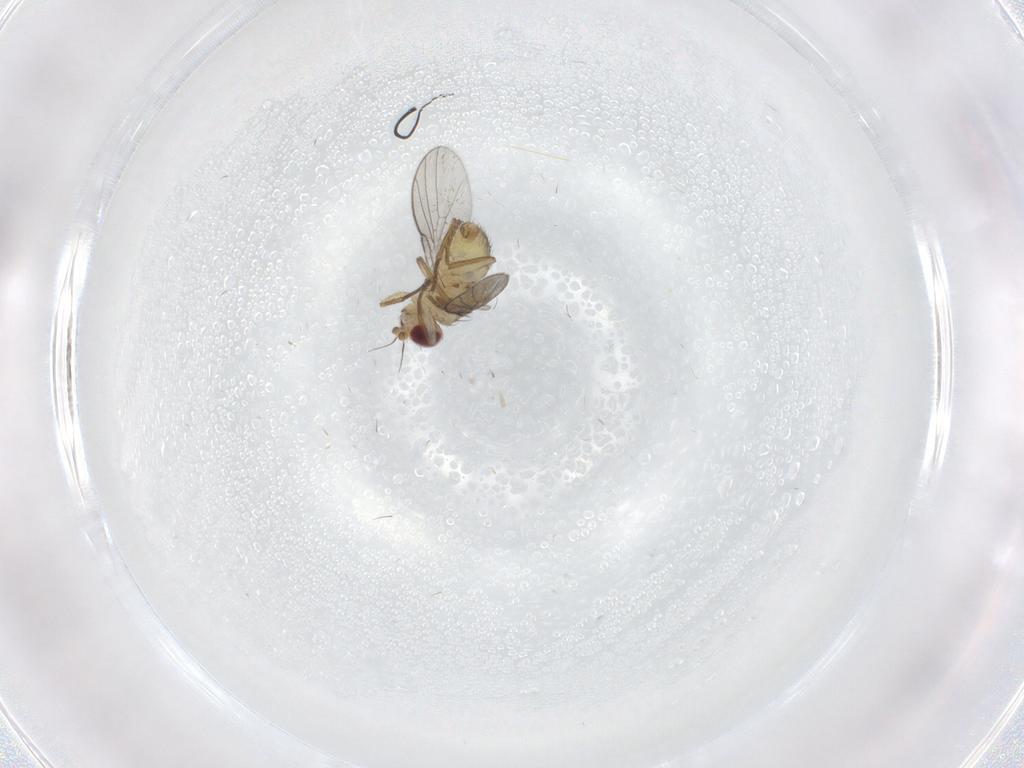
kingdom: Animalia
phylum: Arthropoda
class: Insecta
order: Diptera
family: Agromyzidae
